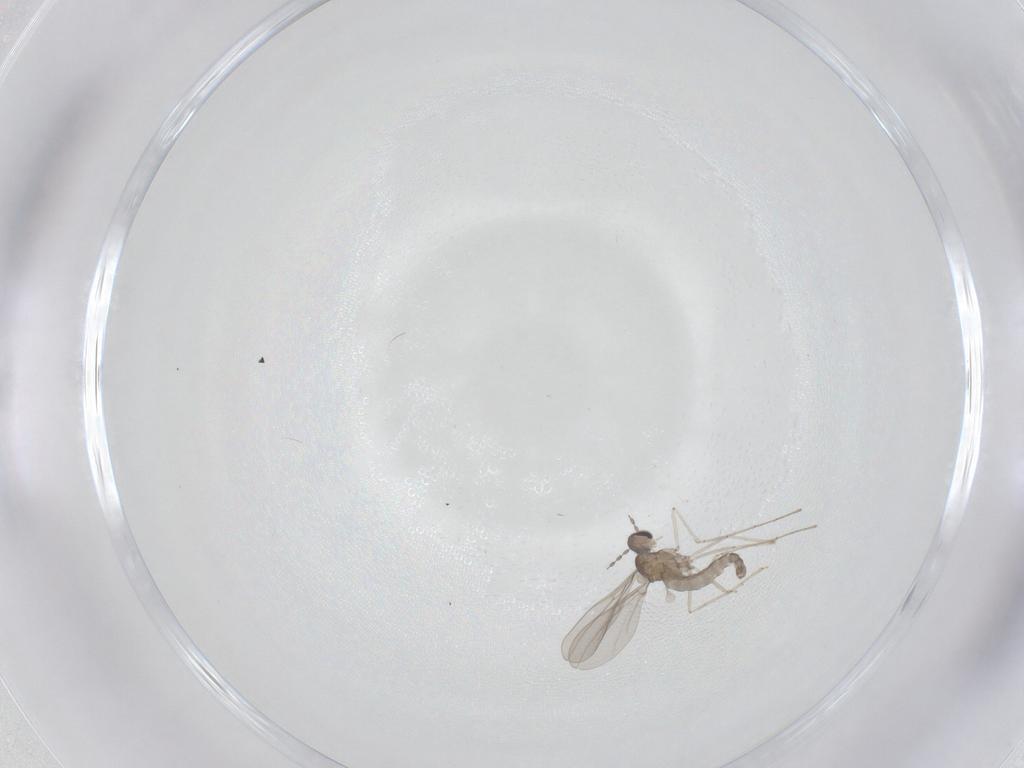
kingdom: Animalia
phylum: Arthropoda
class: Insecta
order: Diptera
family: Cecidomyiidae
